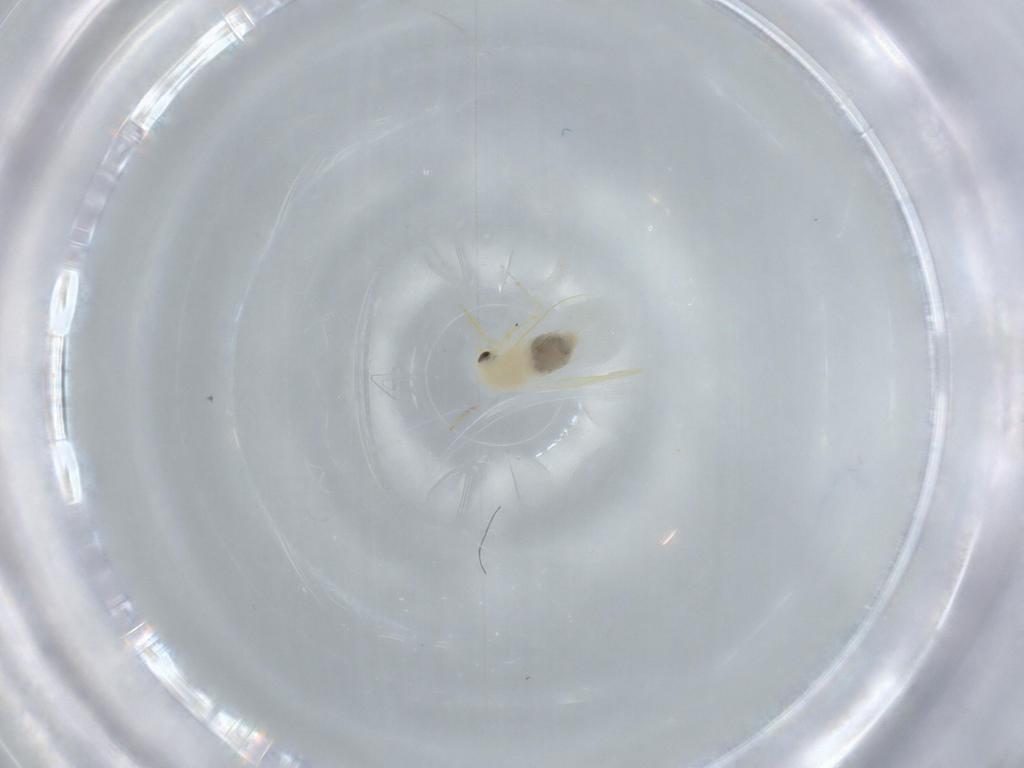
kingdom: Animalia
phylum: Arthropoda
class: Insecta
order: Hemiptera
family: Aleyrodidae
